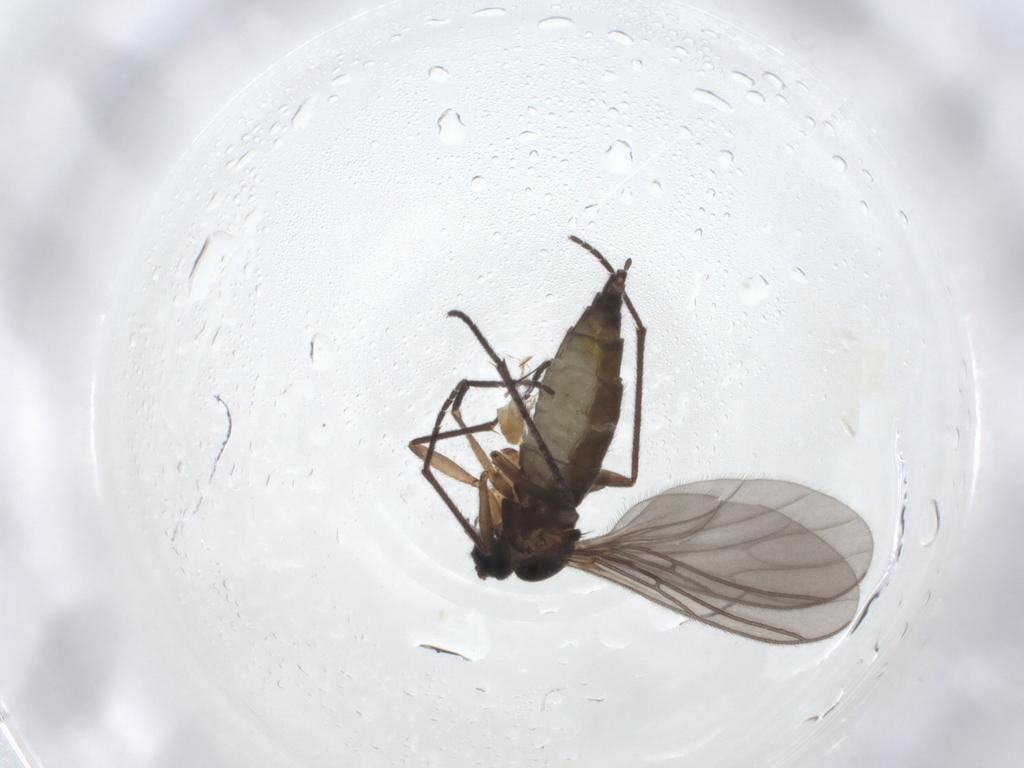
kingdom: Animalia
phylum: Arthropoda
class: Insecta
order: Diptera
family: Sciaridae
